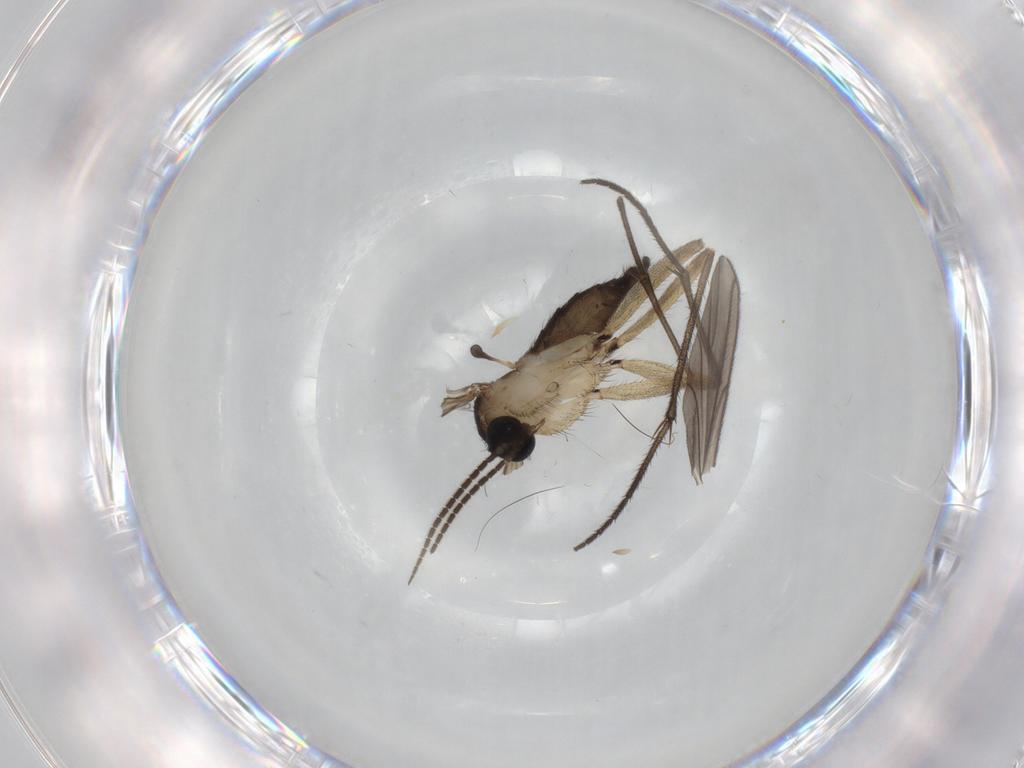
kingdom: Animalia
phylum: Arthropoda
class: Insecta
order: Diptera
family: Sciaridae
